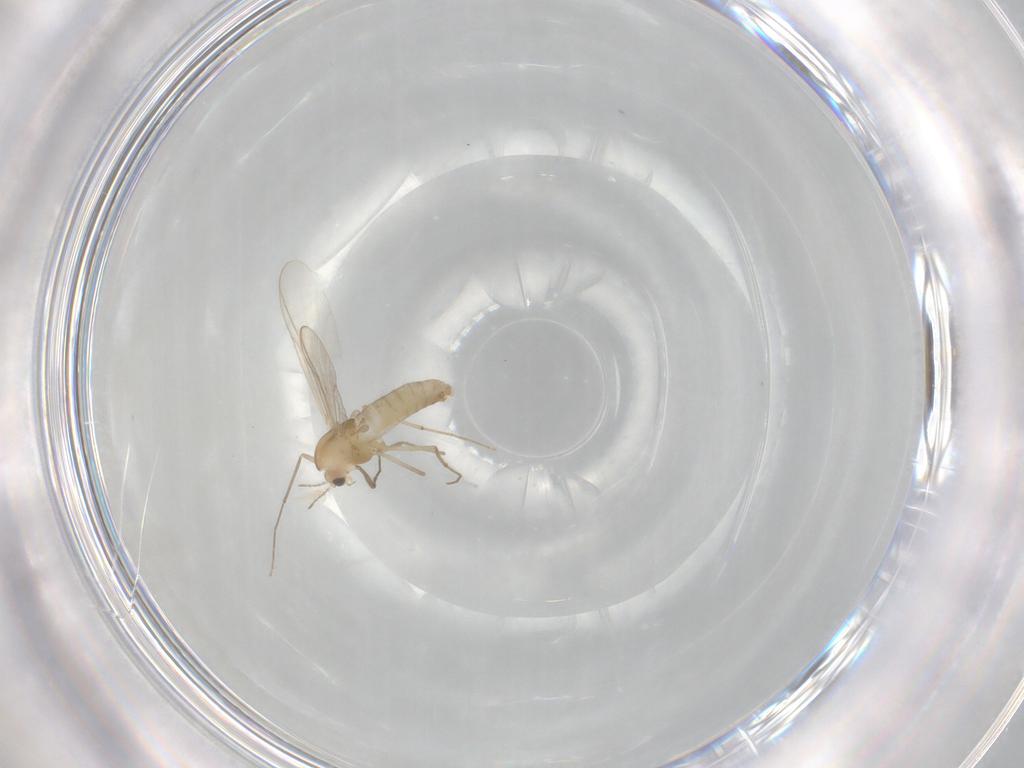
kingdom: Animalia
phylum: Arthropoda
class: Insecta
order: Diptera
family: Chironomidae
